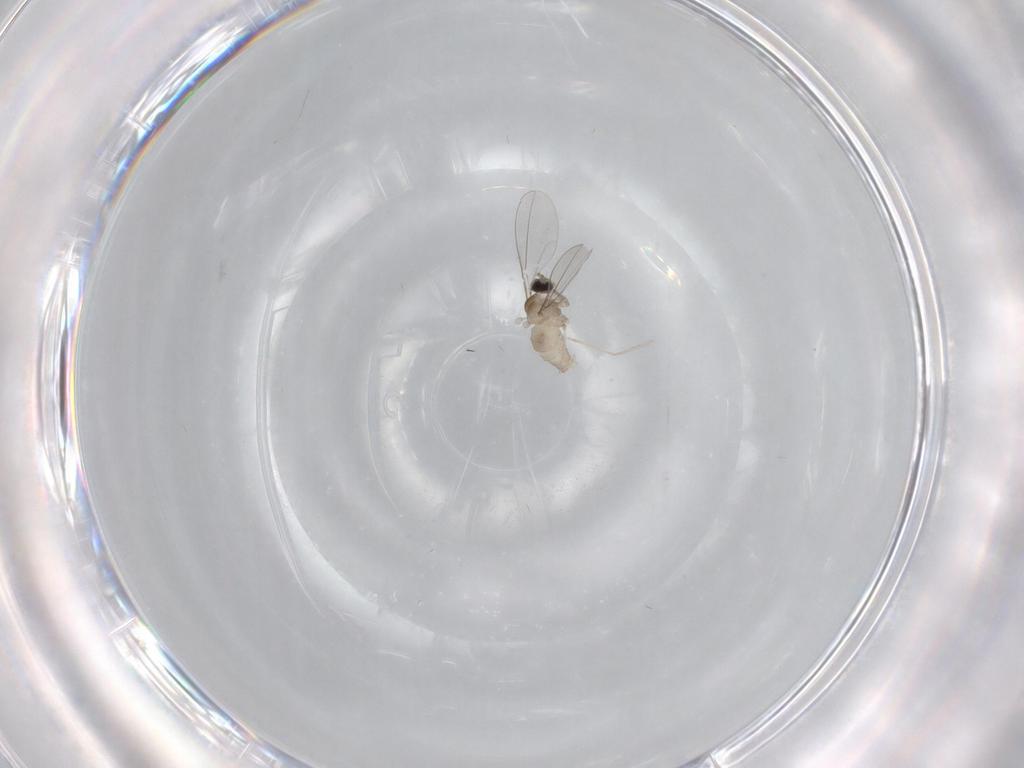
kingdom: Animalia
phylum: Arthropoda
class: Insecta
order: Diptera
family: Cecidomyiidae
